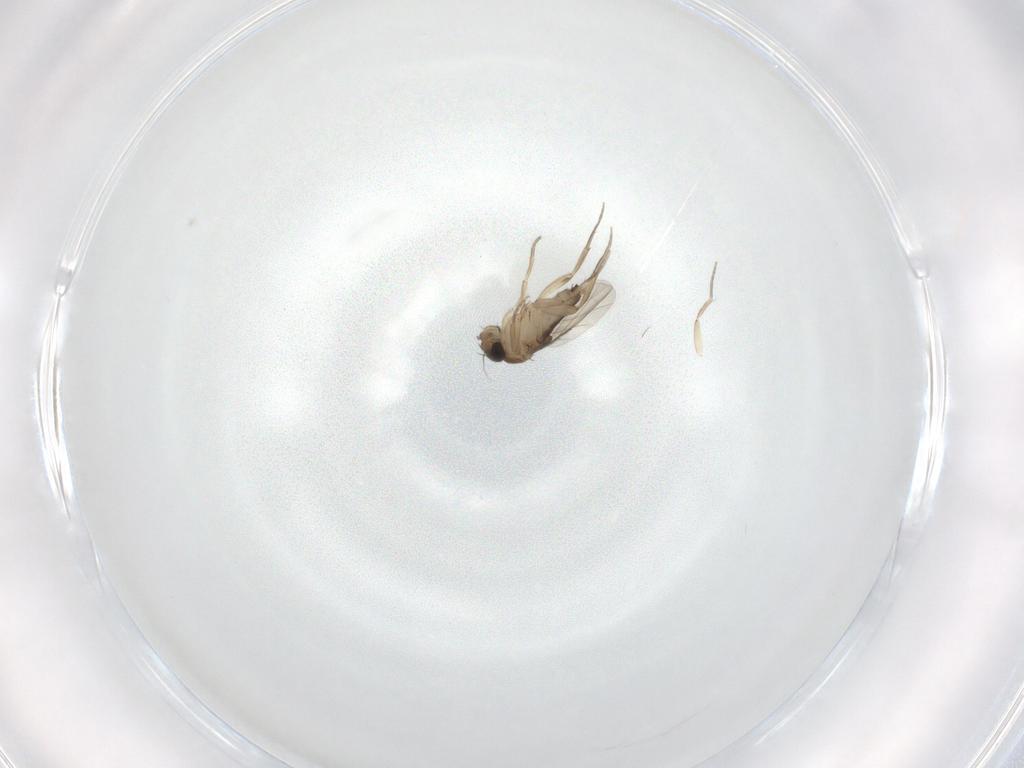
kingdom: Animalia
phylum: Arthropoda
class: Insecta
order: Diptera
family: Phoridae
